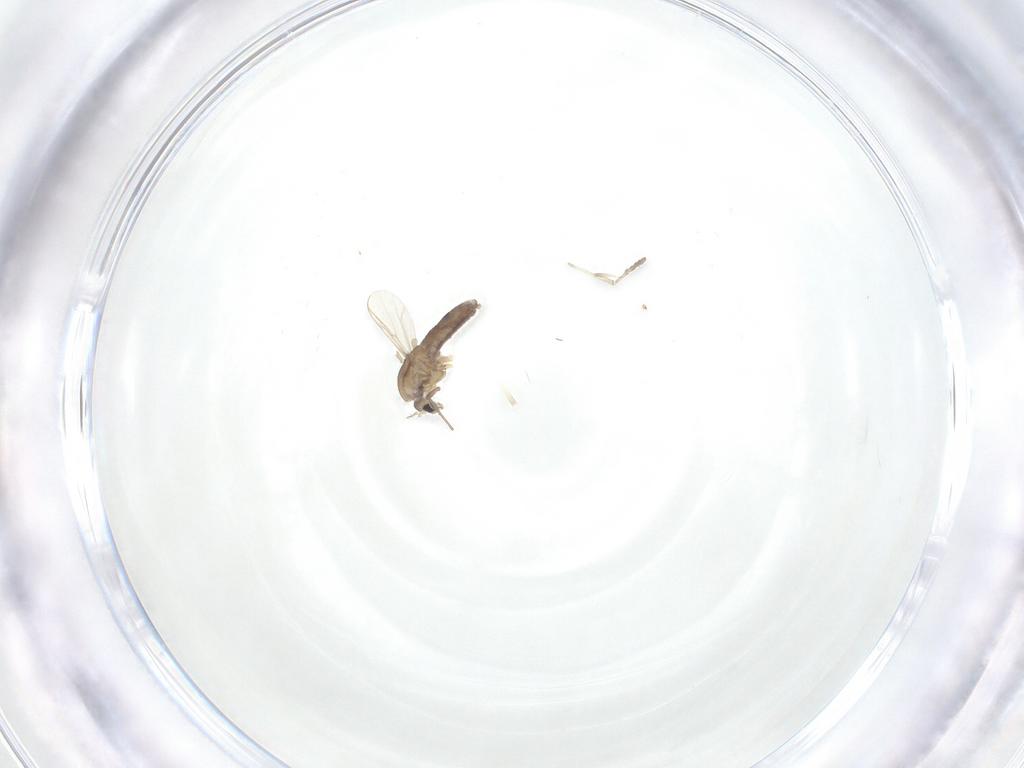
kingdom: Animalia
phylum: Arthropoda
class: Insecta
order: Diptera
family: Chironomidae
